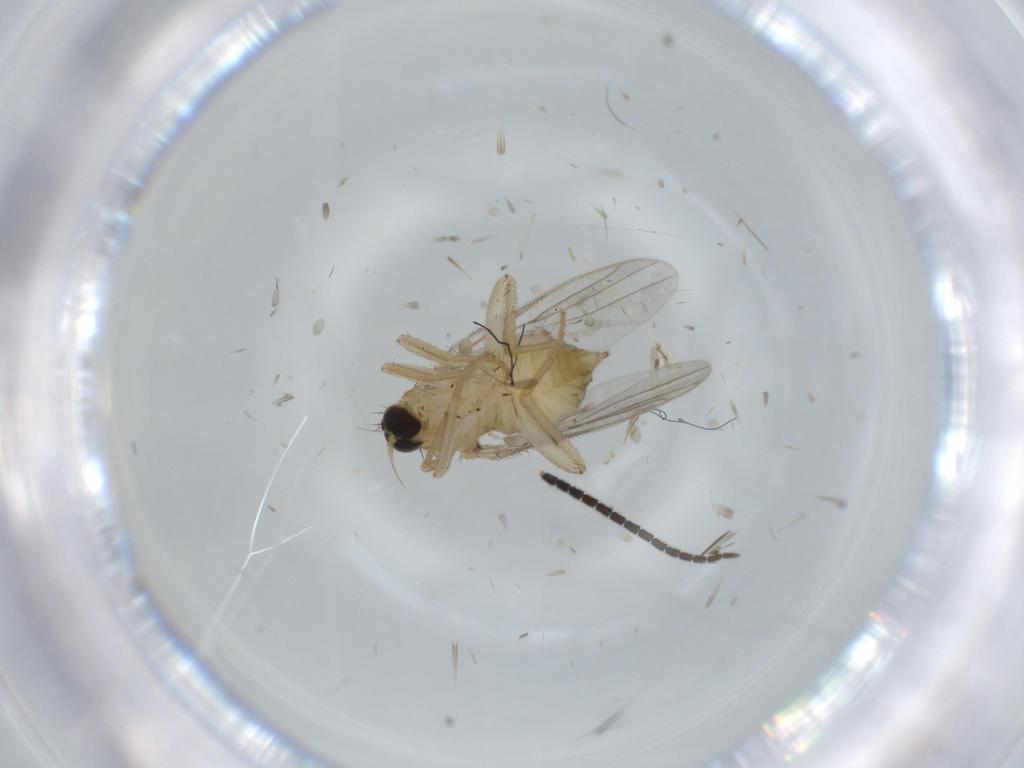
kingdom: Animalia
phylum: Arthropoda
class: Insecta
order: Diptera
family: Hybotidae
